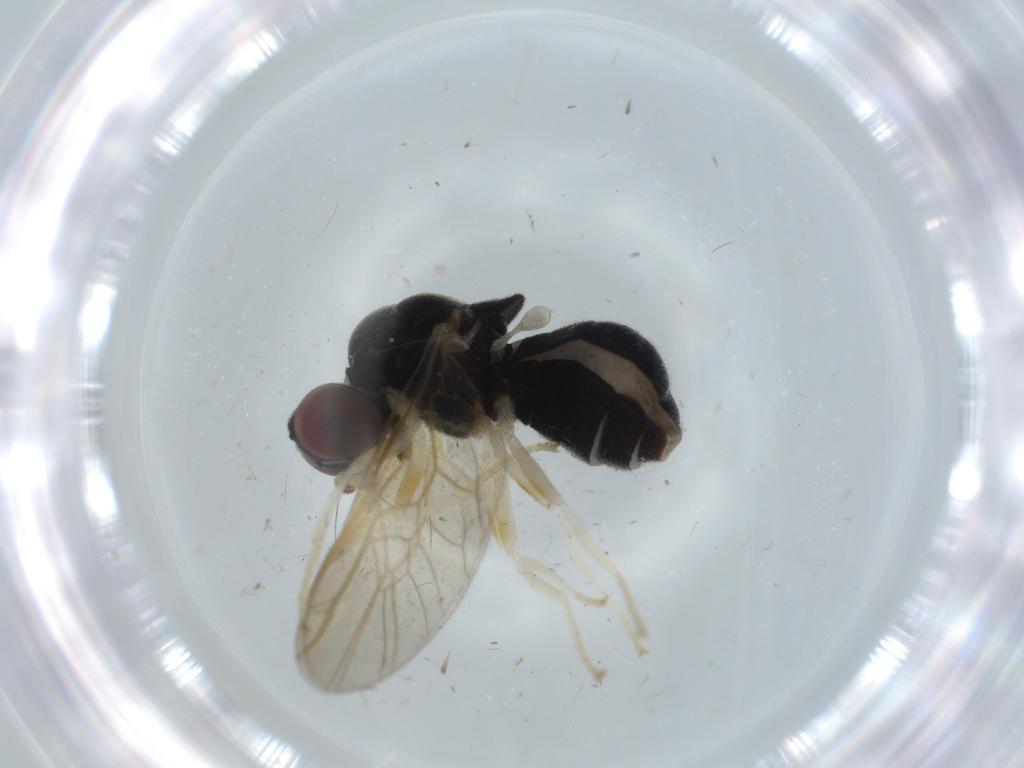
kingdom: Animalia
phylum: Arthropoda
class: Insecta
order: Diptera
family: Stratiomyidae
